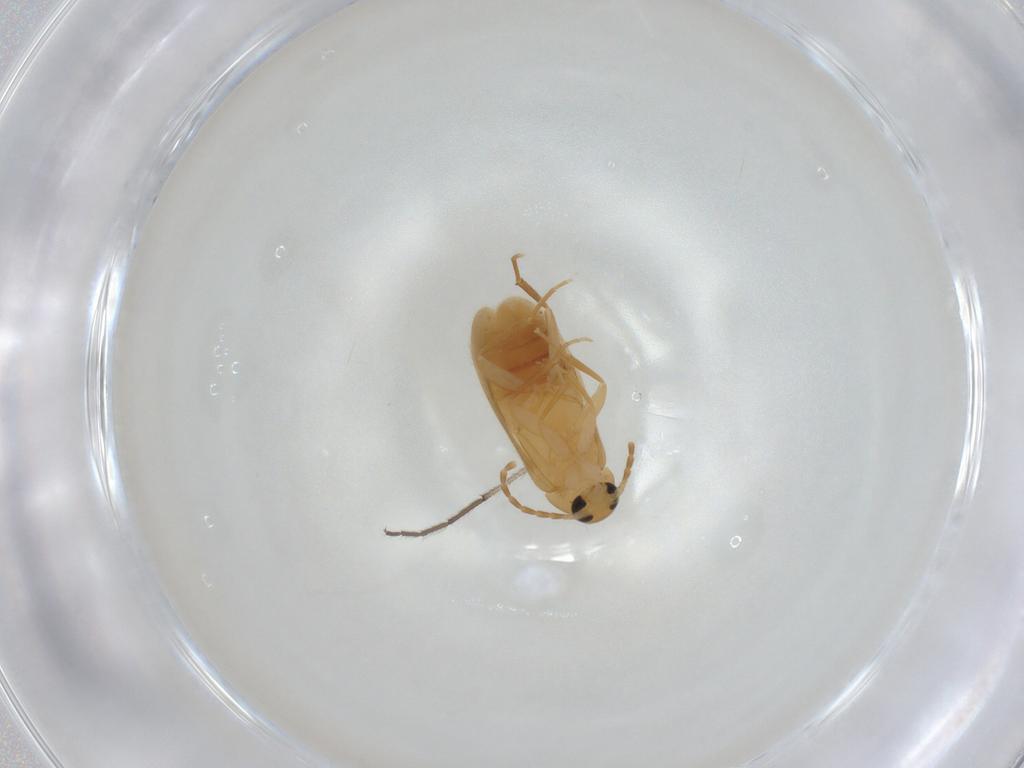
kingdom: Animalia
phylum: Arthropoda
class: Insecta
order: Coleoptera
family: Scraptiidae
